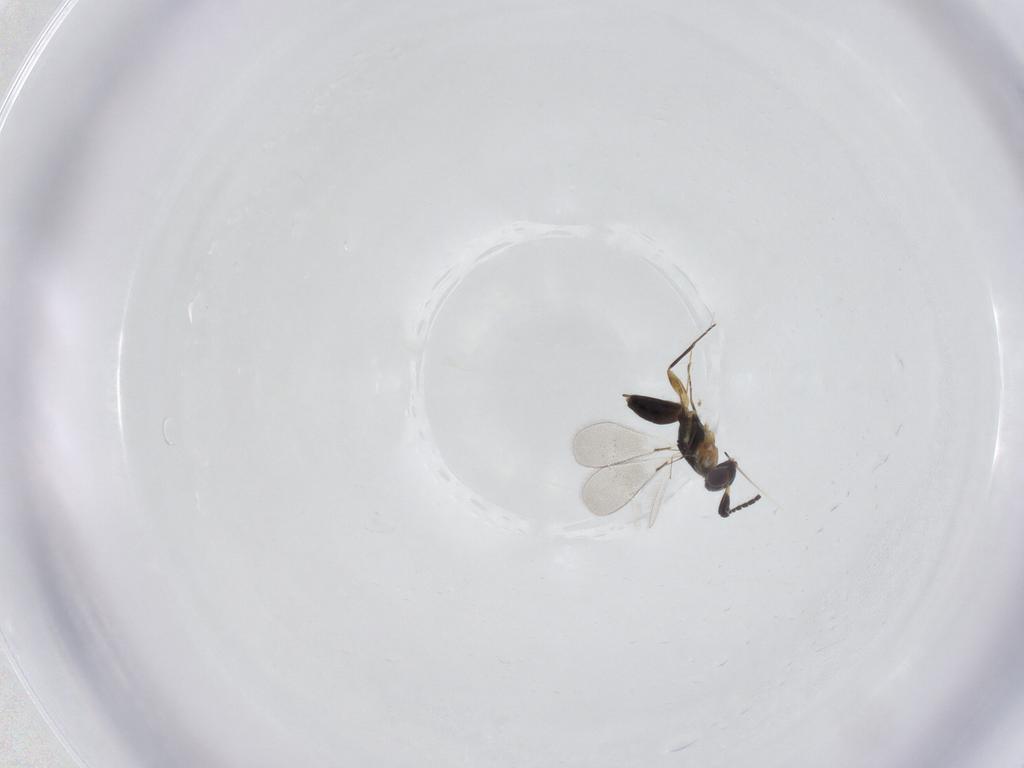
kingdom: Animalia
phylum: Arthropoda
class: Insecta
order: Hymenoptera
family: Mymaridae
